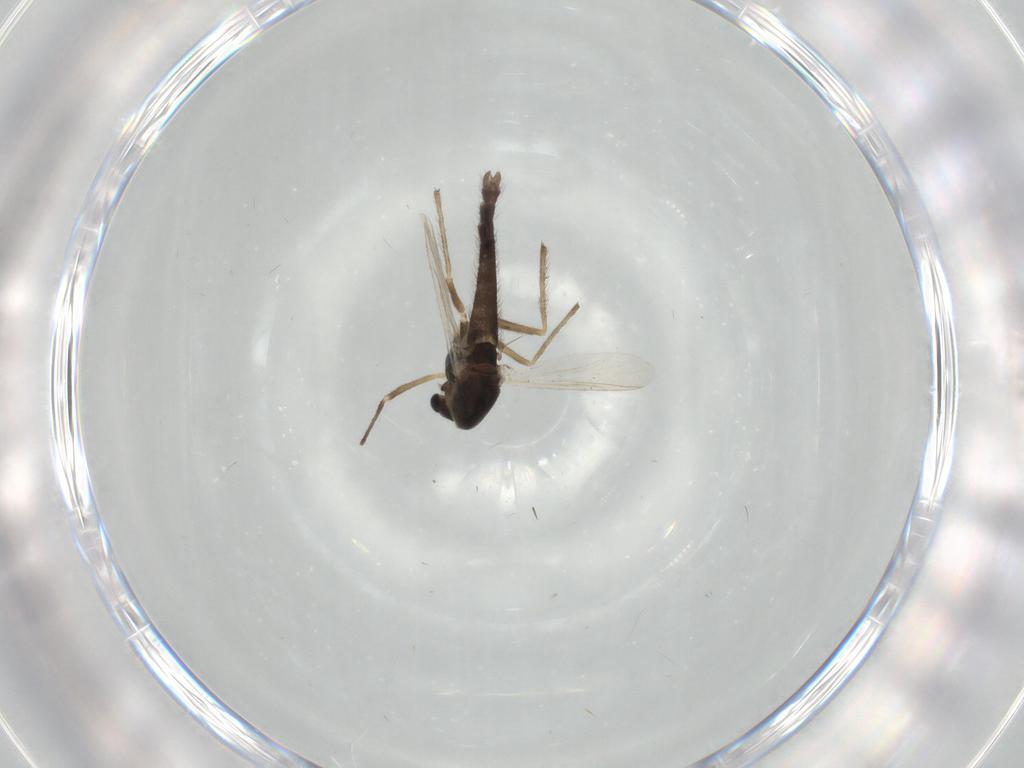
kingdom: Animalia
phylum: Arthropoda
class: Insecta
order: Diptera
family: Chironomidae
